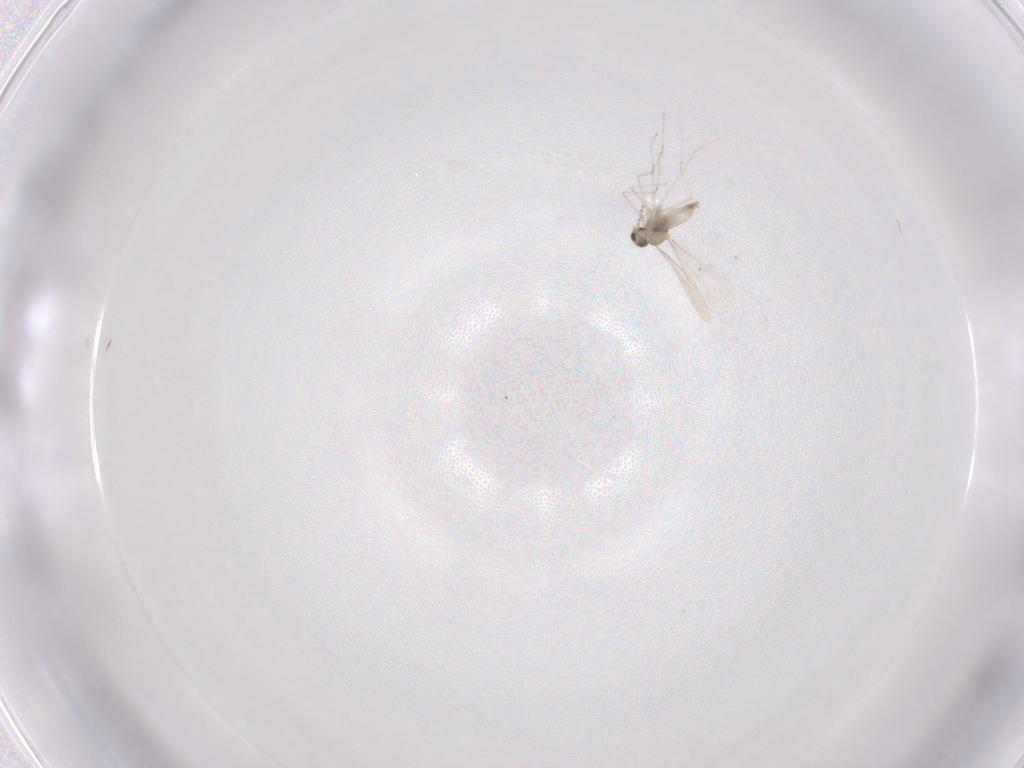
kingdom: Animalia
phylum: Arthropoda
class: Insecta
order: Diptera
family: Cecidomyiidae
